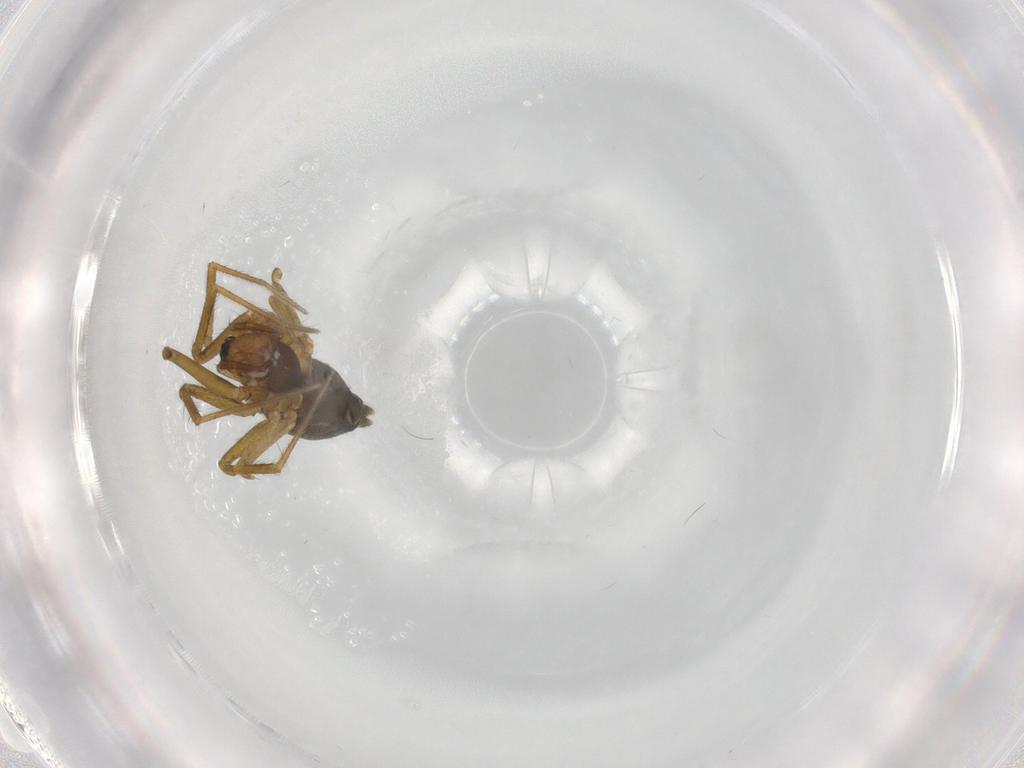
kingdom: Animalia
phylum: Arthropoda
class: Arachnida
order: Araneae
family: Linyphiidae
